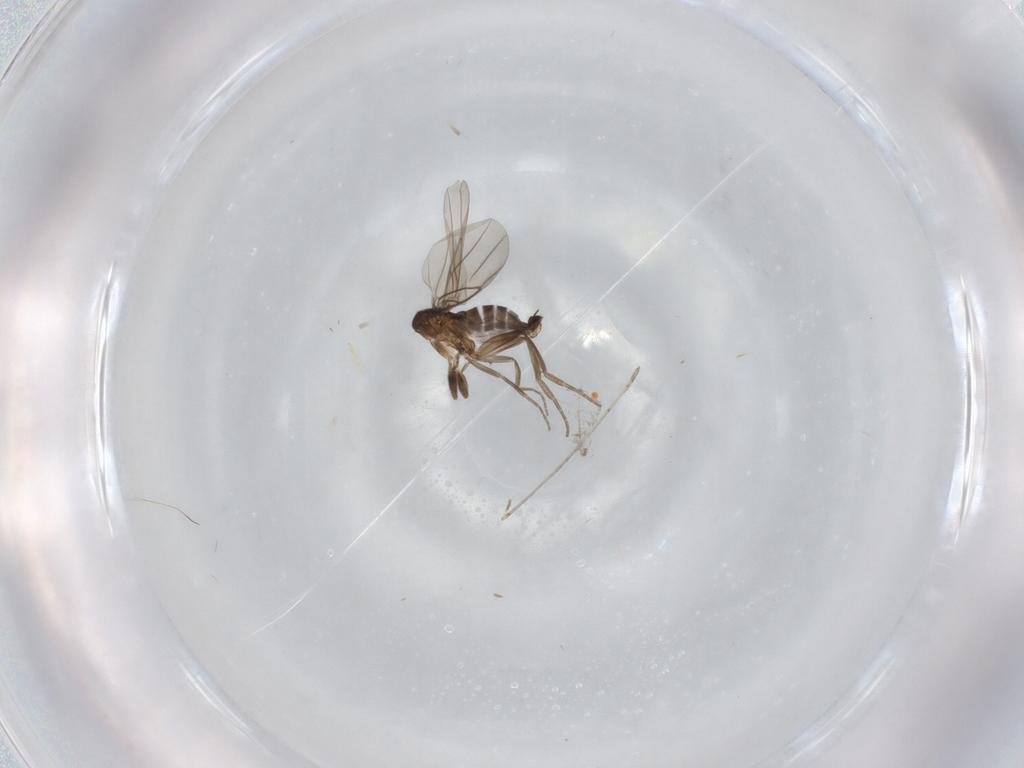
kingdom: Animalia
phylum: Arthropoda
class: Insecta
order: Diptera
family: Phoridae
